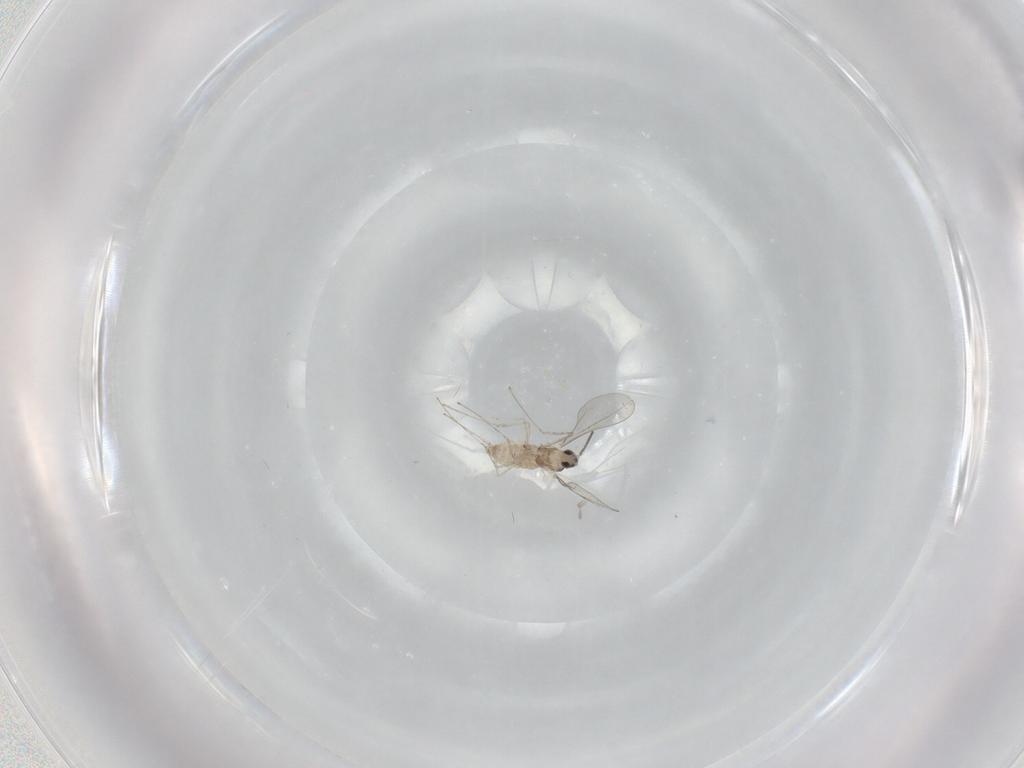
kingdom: Animalia
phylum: Arthropoda
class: Insecta
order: Diptera
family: Cecidomyiidae
